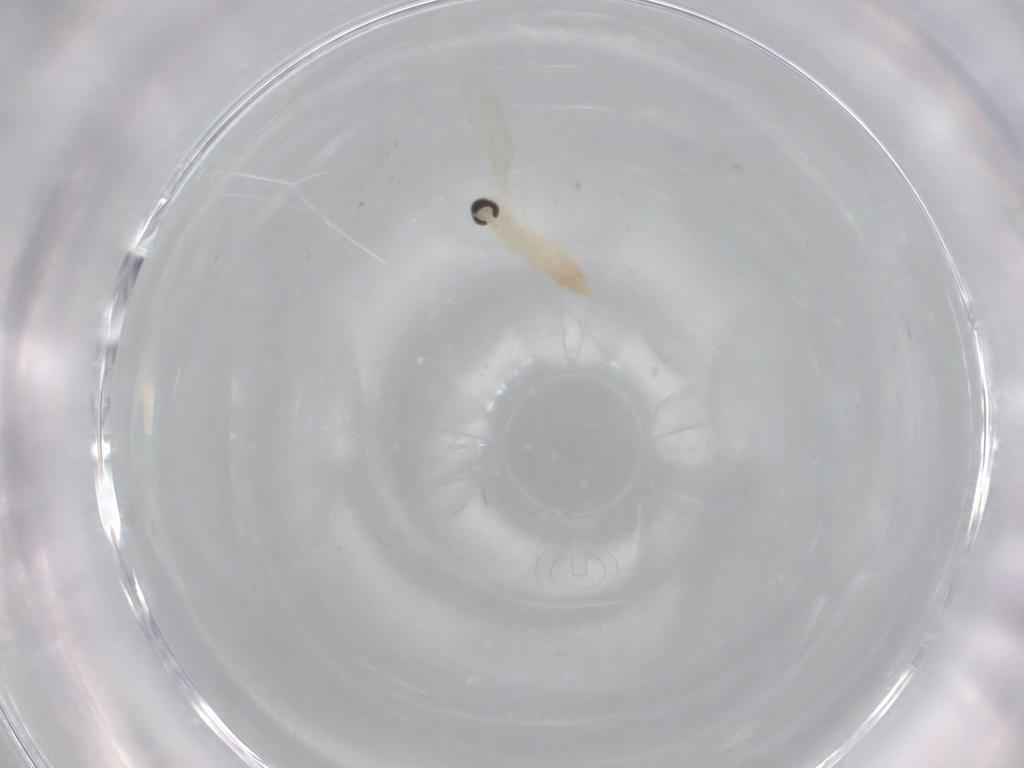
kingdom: Animalia
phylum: Arthropoda
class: Insecta
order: Diptera
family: Cecidomyiidae
